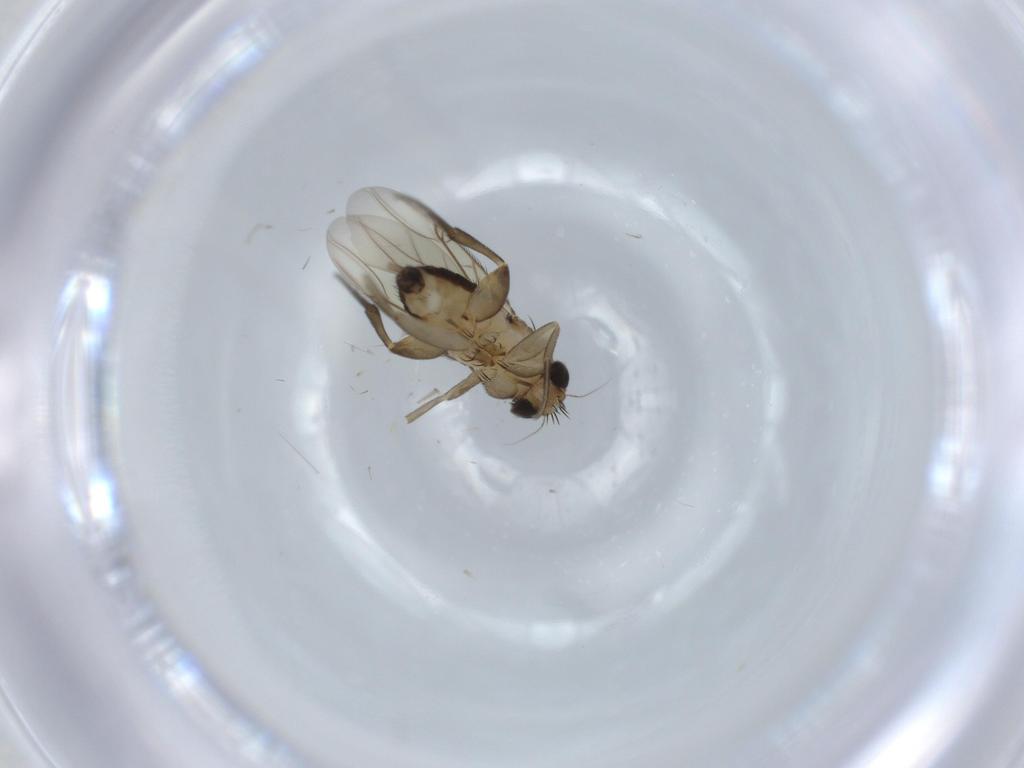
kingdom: Animalia
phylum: Arthropoda
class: Insecta
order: Diptera
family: Phoridae
